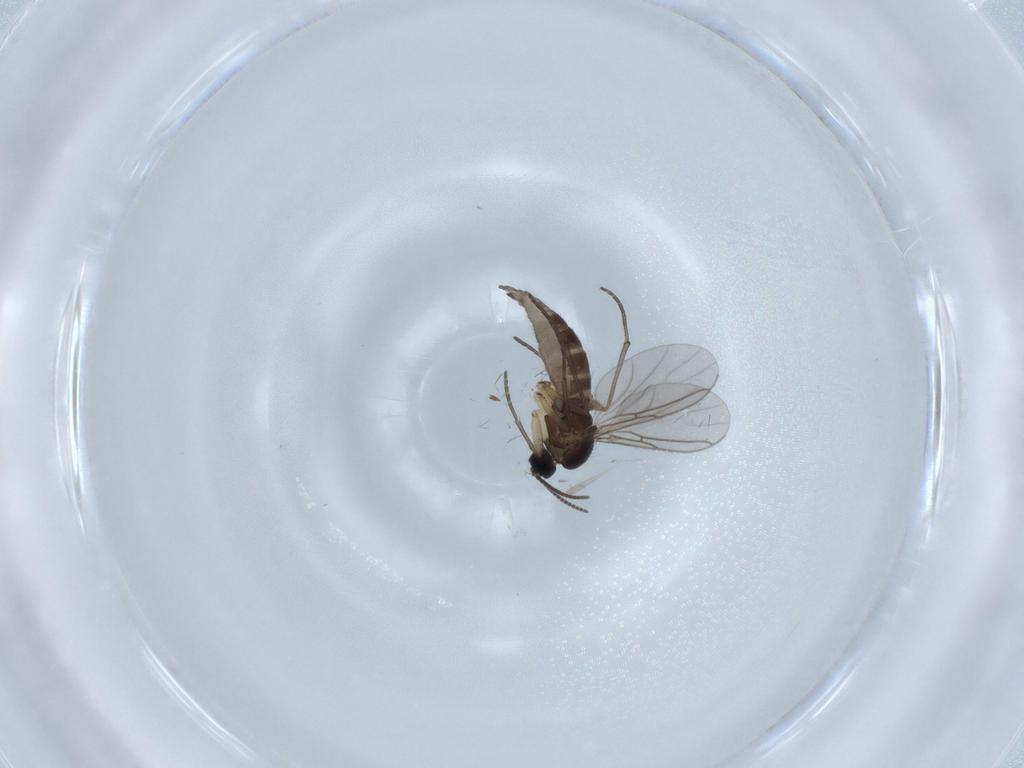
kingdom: Animalia
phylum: Arthropoda
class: Insecta
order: Diptera
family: Sciaridae
